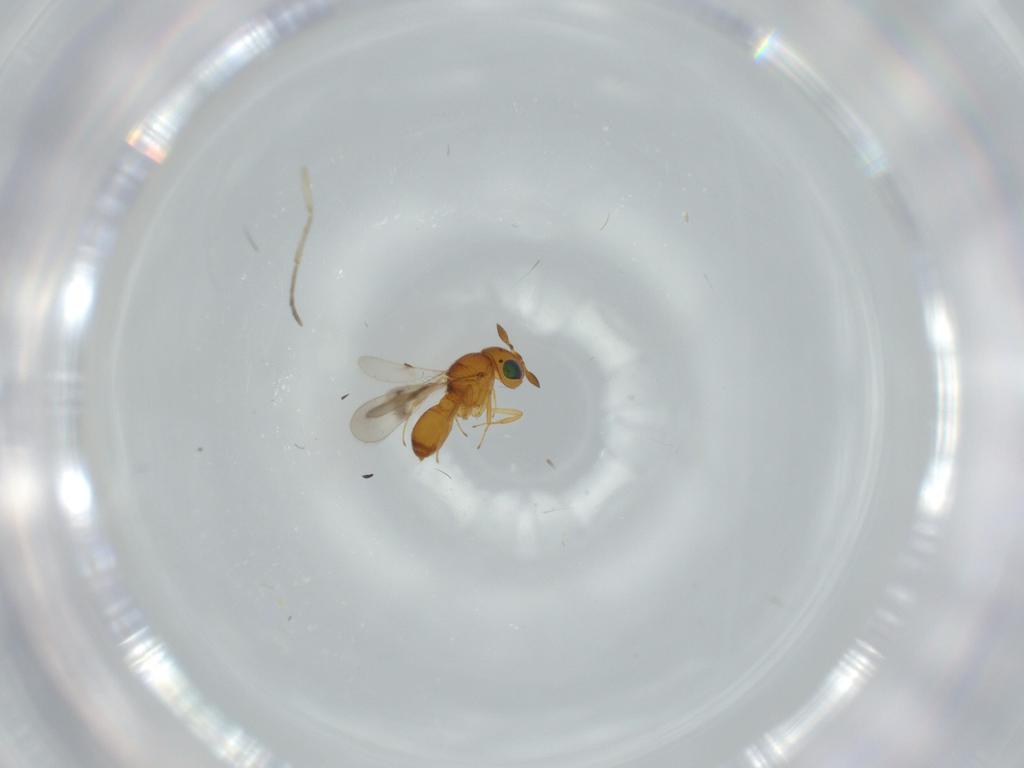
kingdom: Animalia
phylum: Arthropoda
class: Insecta
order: Hymenoptera
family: Scelionidae
